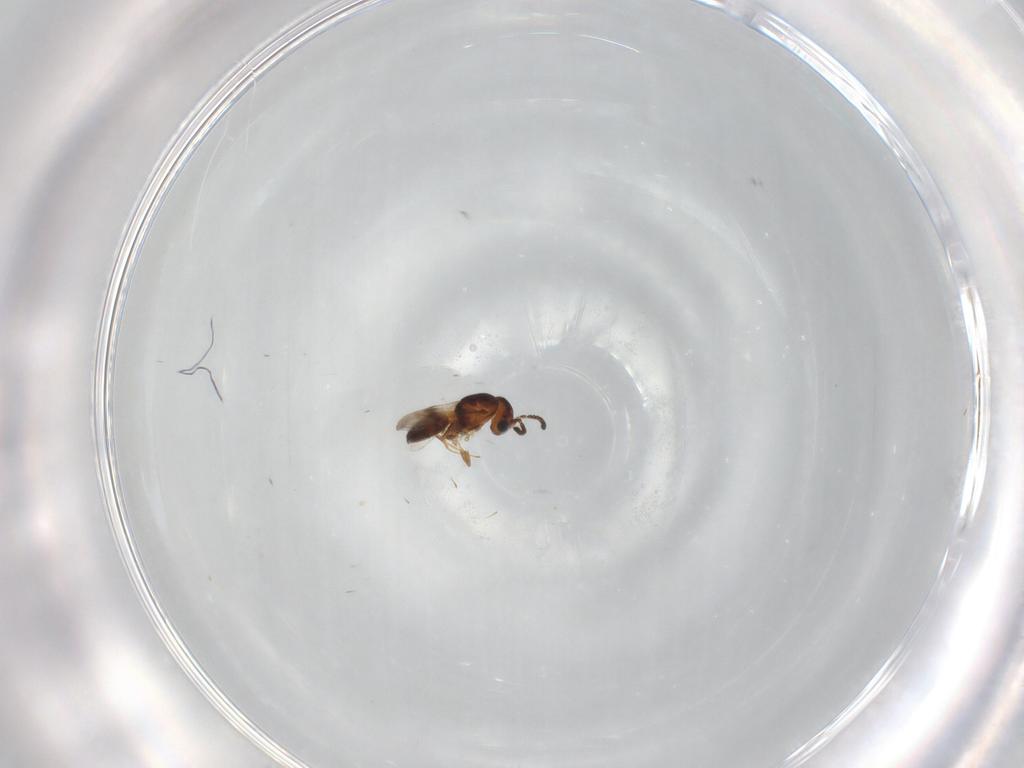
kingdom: Animalia
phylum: Arthropoda
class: Insecta
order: Hymenoptera
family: Scelionidae
